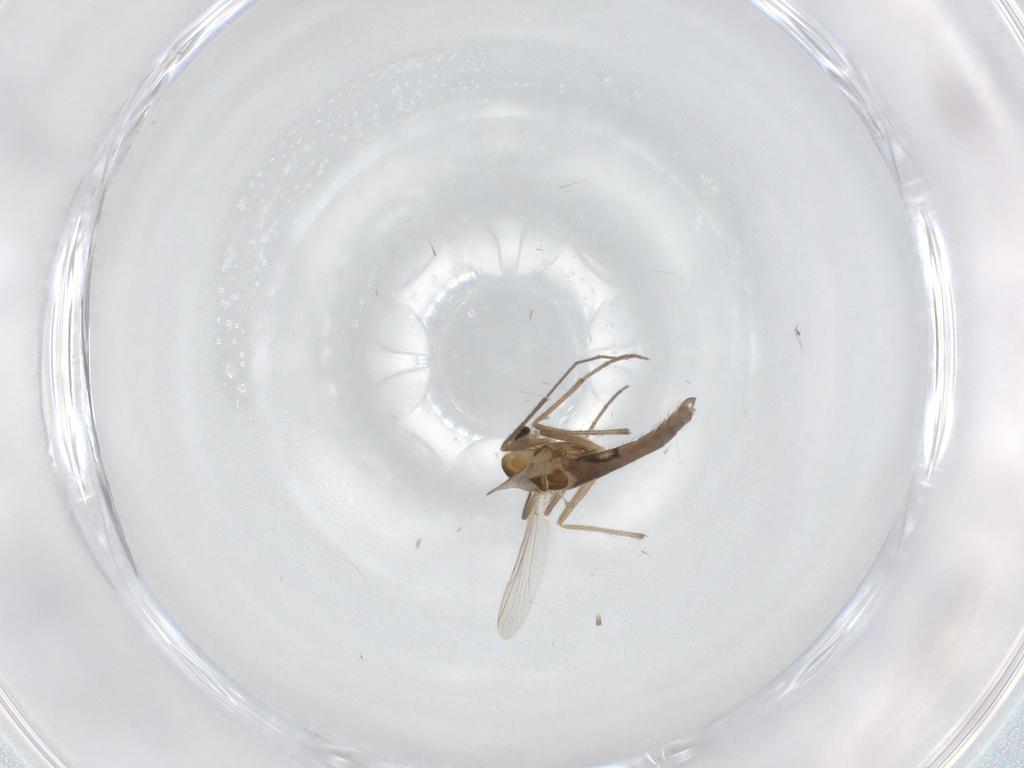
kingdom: Animalia
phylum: Arthropoda
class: Insecta
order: Diptera
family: Chironomidae
